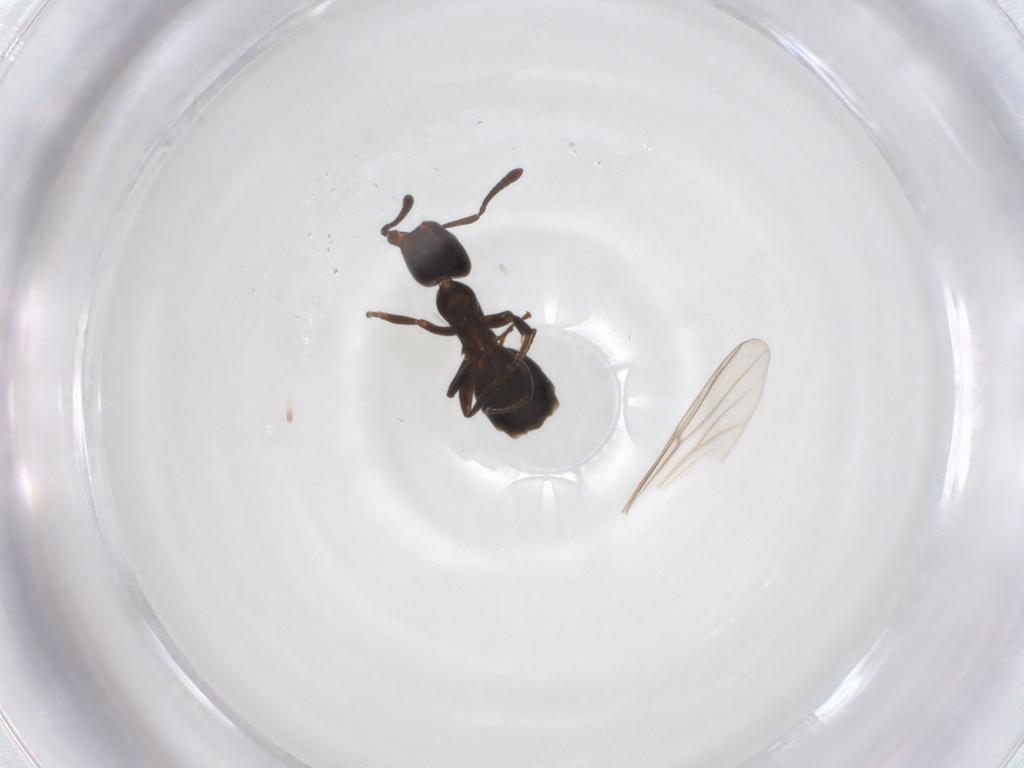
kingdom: Animalia
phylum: Arthropoda
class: Insecta
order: Hymenoptera
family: Formicidae
